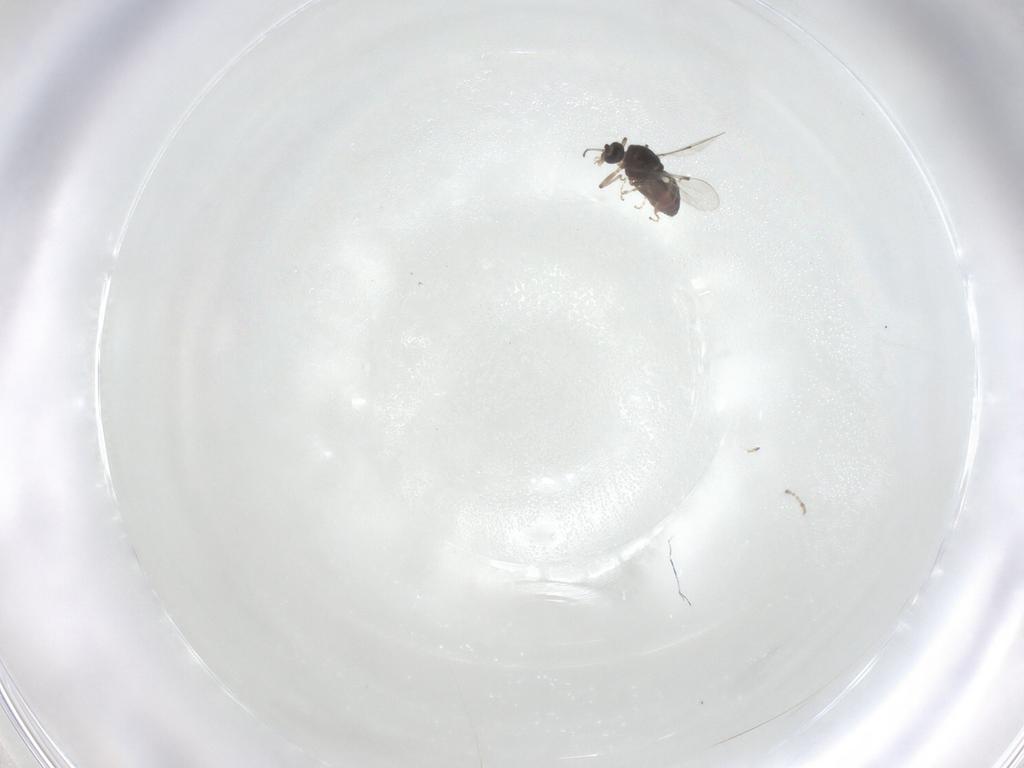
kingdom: Animalia
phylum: Arthropoda
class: Insecta
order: Diptera
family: Ceratopogonidae
